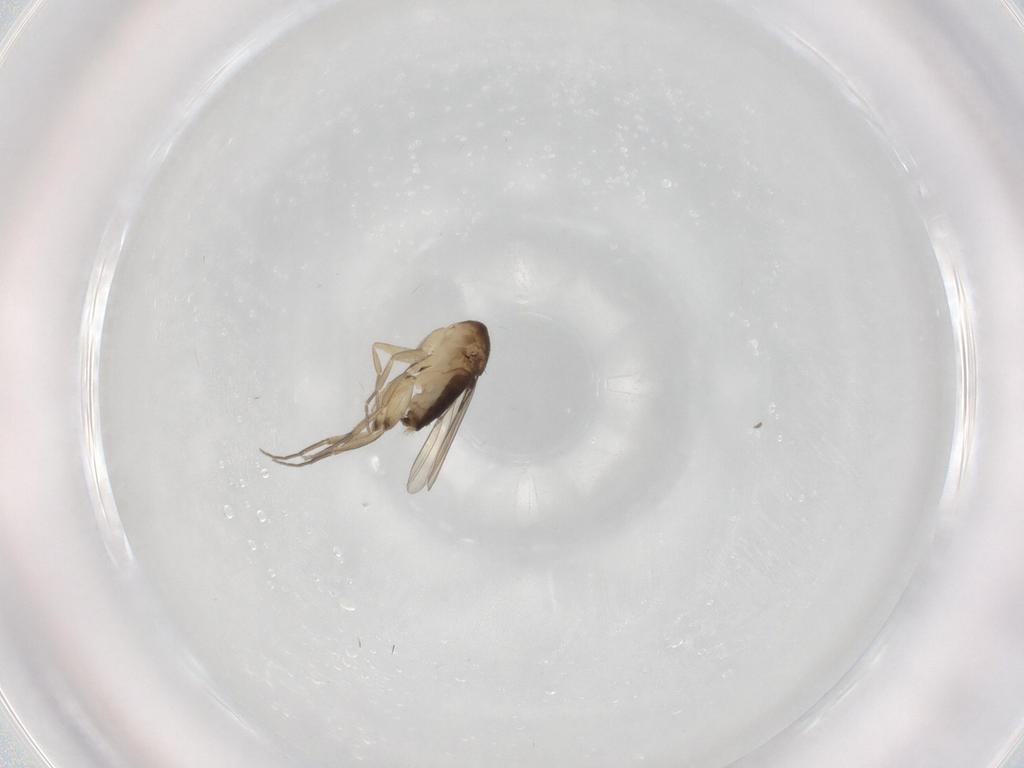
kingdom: Animalia
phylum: Arthropoda
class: Insecta
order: Diptera
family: Phoridae
